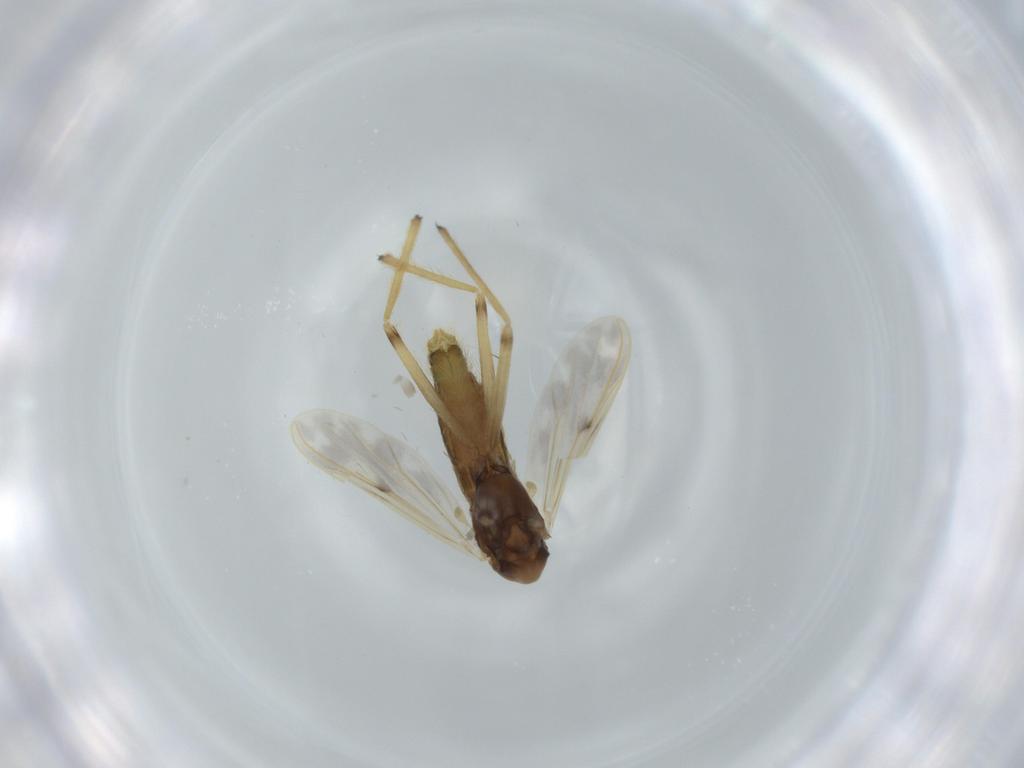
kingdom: Animalia
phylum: Arthropoda
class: Insecta
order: Diptera
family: Chironomidae
